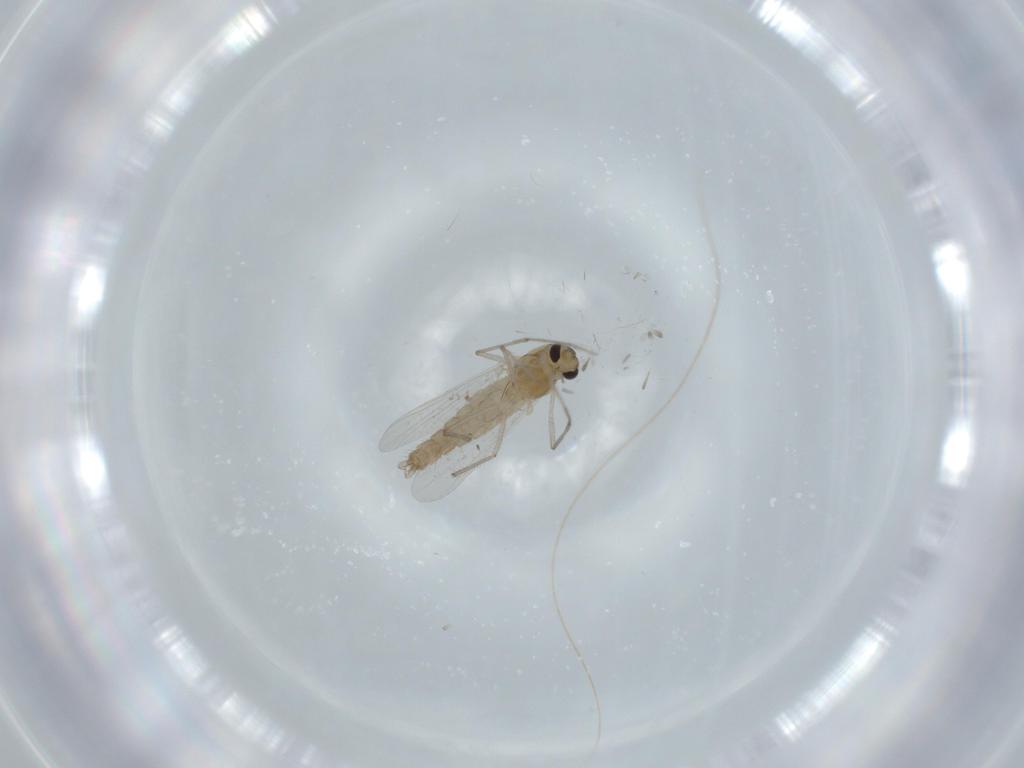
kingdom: Animalia
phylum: Arthropoda
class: Insecta
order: Diptera
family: Chironomidae
